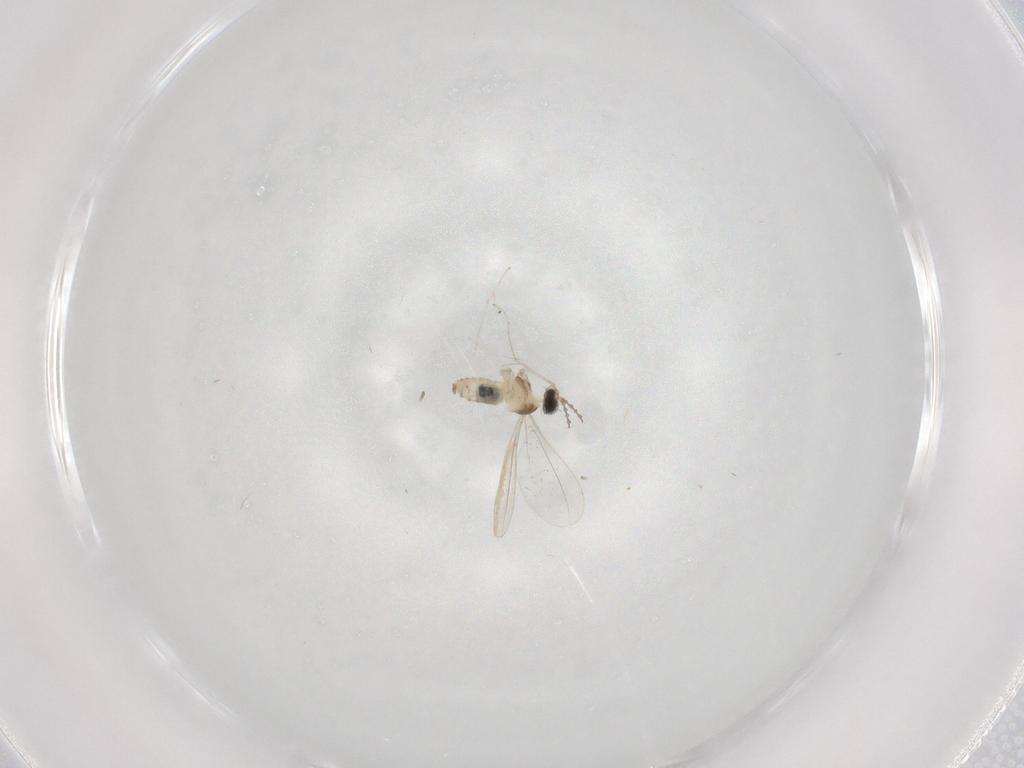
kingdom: Animalia
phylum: Arthropoda
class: Insecta
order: Diptera
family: Cecidomyiidae
